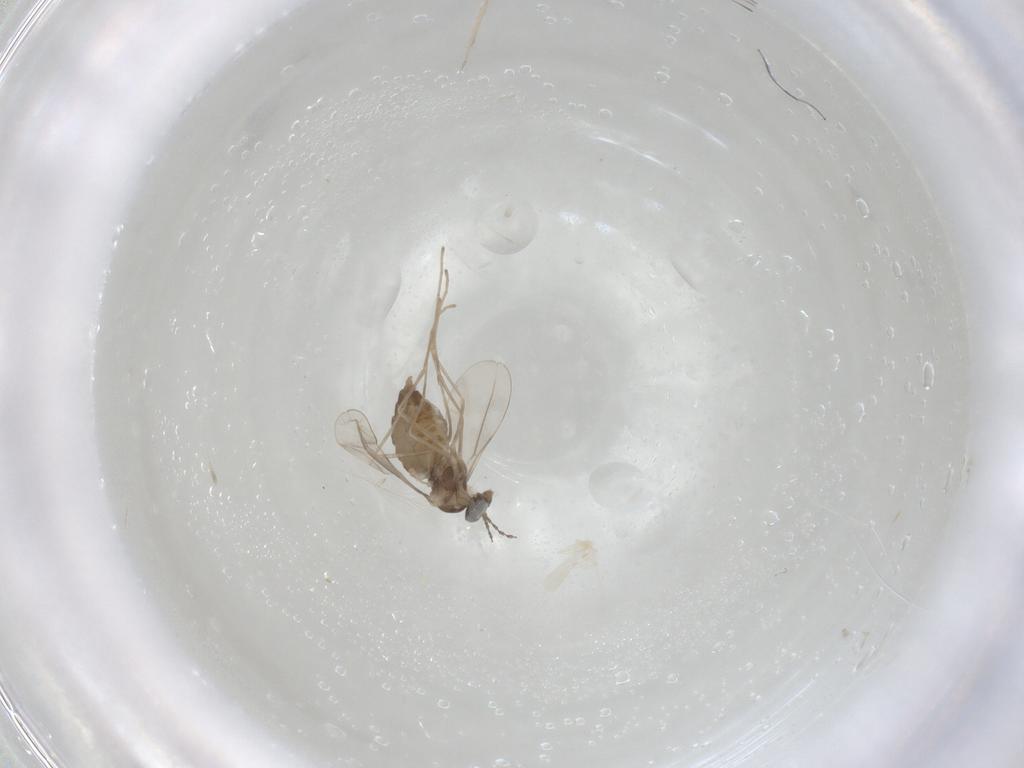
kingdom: Animalia
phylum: Arthropoda
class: Insecta
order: Diptera
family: Cecidomyiidae
